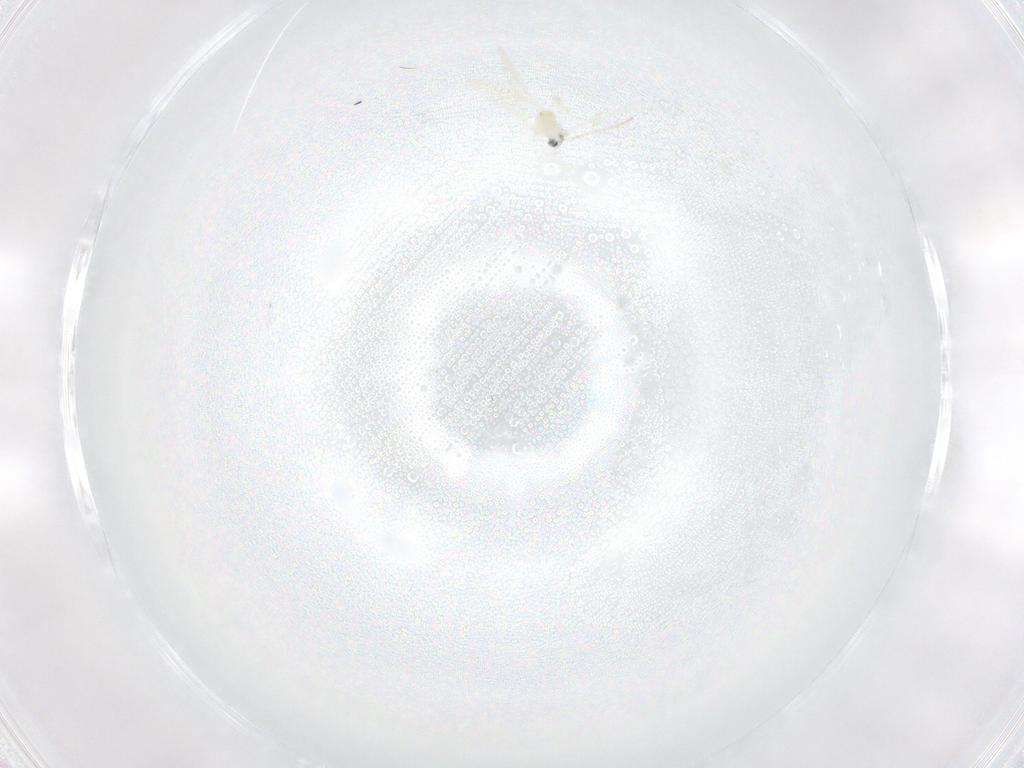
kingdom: Animalia
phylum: Arthropoda
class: Insecta
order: Diptera
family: Cecidomyiidae
